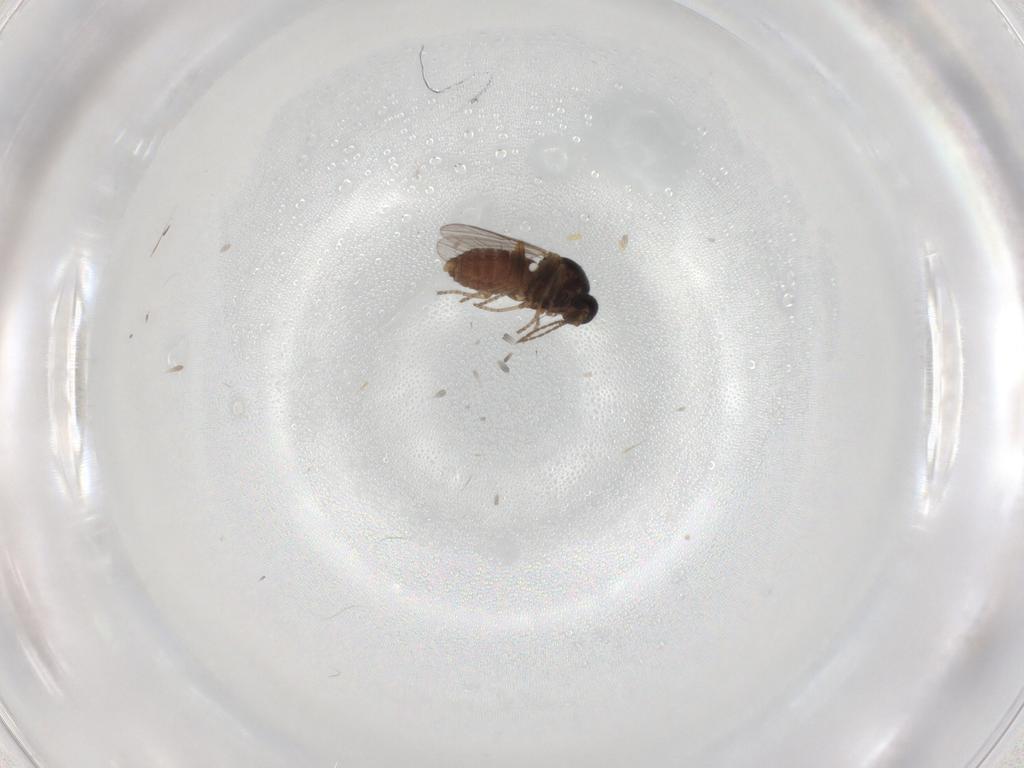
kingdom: Animalia
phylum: Arthropoda
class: Insecta
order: Diptera
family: Ceratopogonidae
